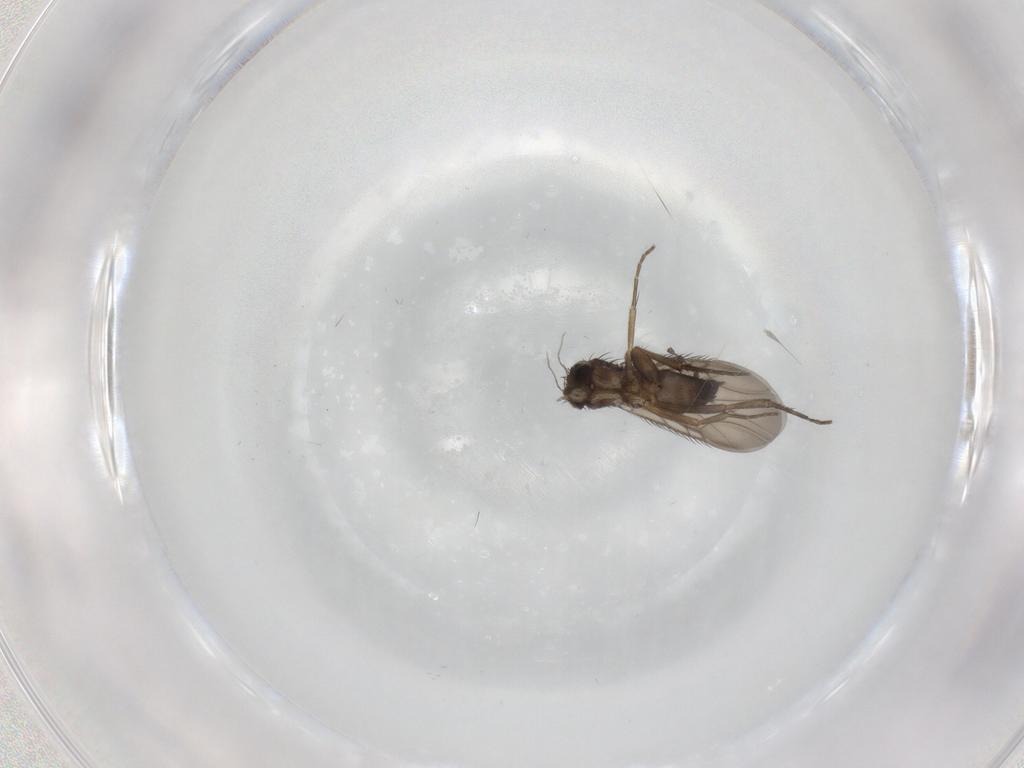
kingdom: Animalia
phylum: Arthropoda
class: Insecta
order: Diptera
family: Phoridae
